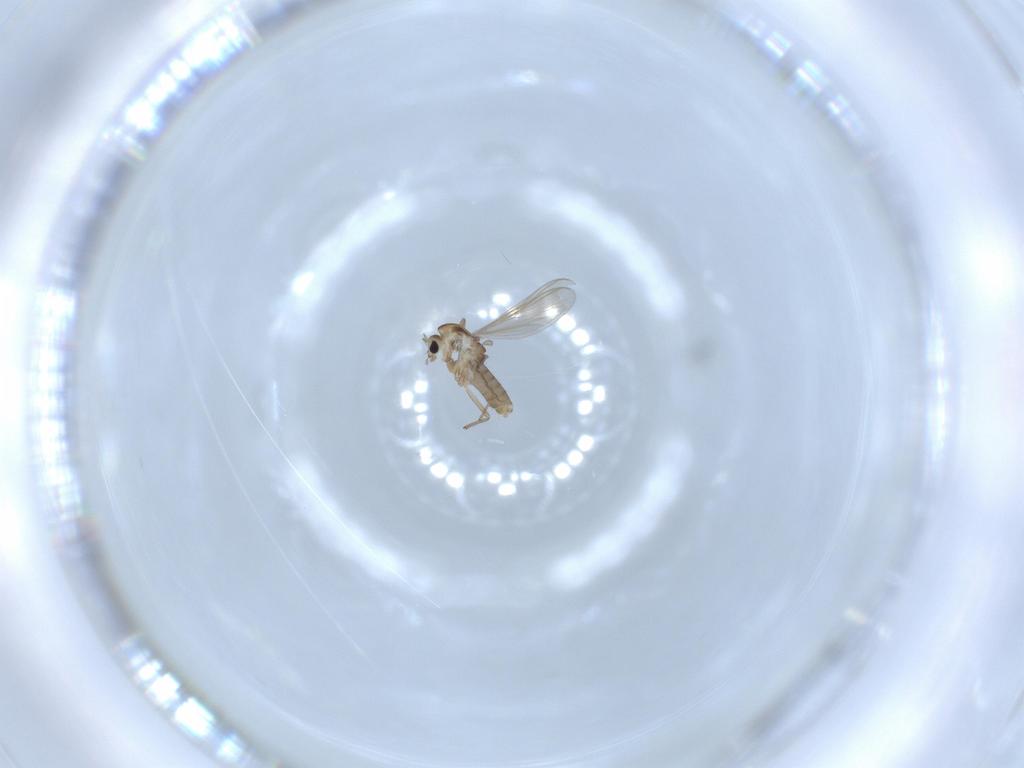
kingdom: Animalia
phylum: Arthropoda
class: Insecta
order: Diptera
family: Chironomidae
